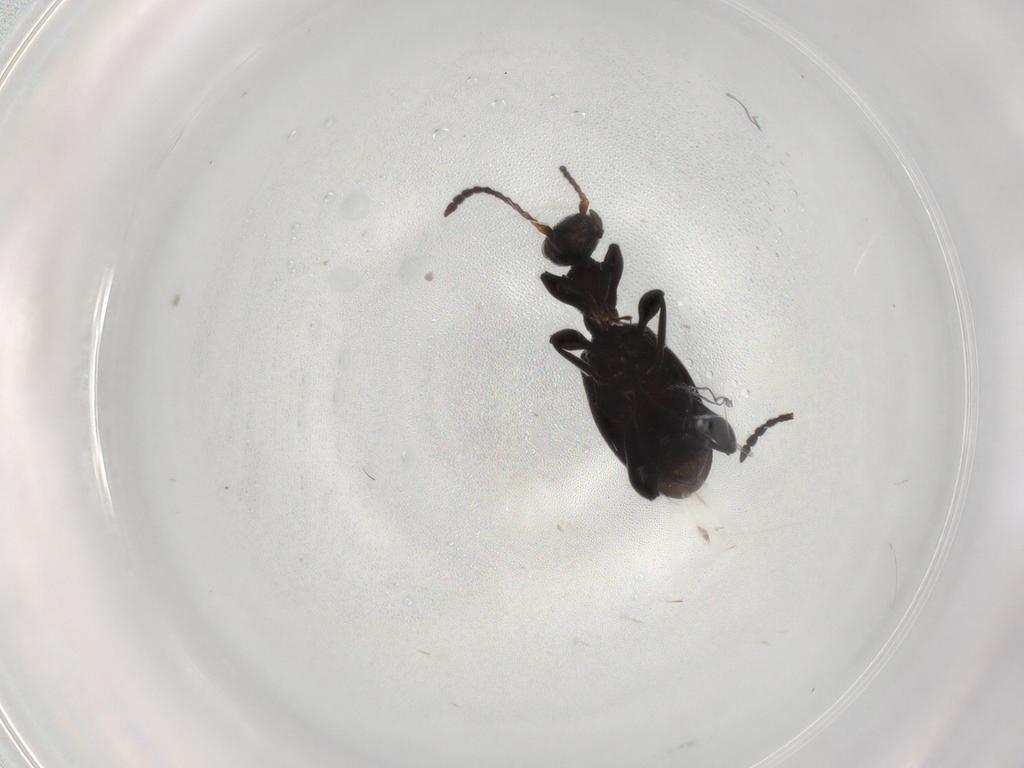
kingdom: Animalia
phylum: Arthropoda
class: Insecta
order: Coleoptera
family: Anthicidae
